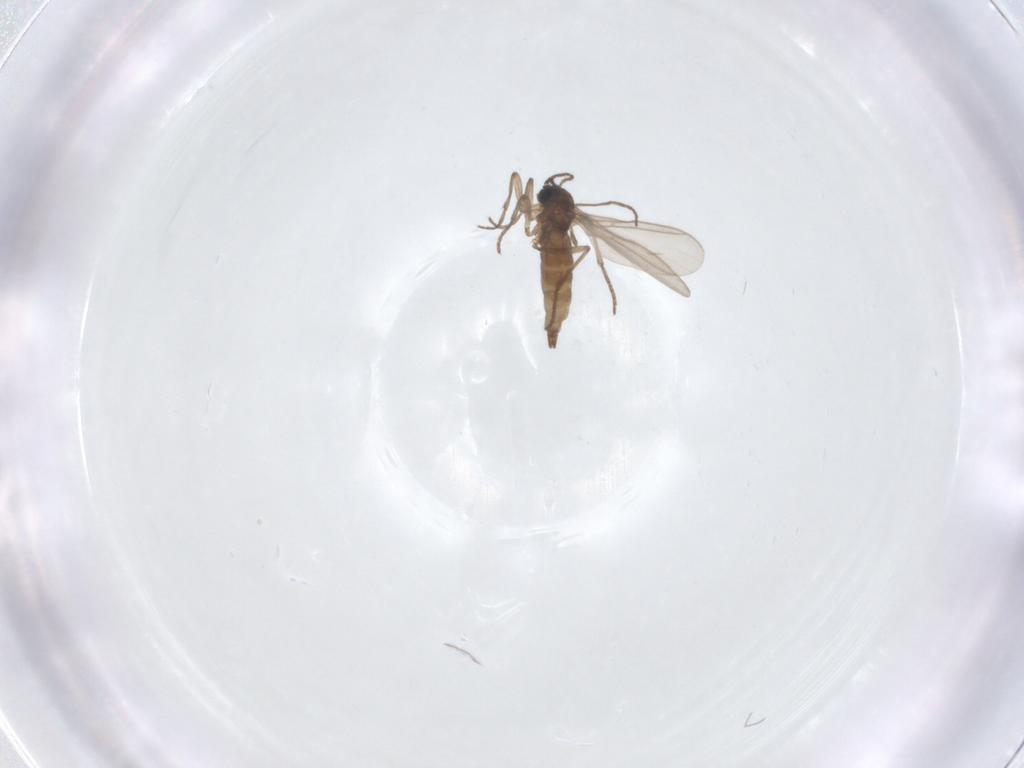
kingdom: Animalia
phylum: Arthropoda
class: Insecta
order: Diptera
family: Scatopsidae
